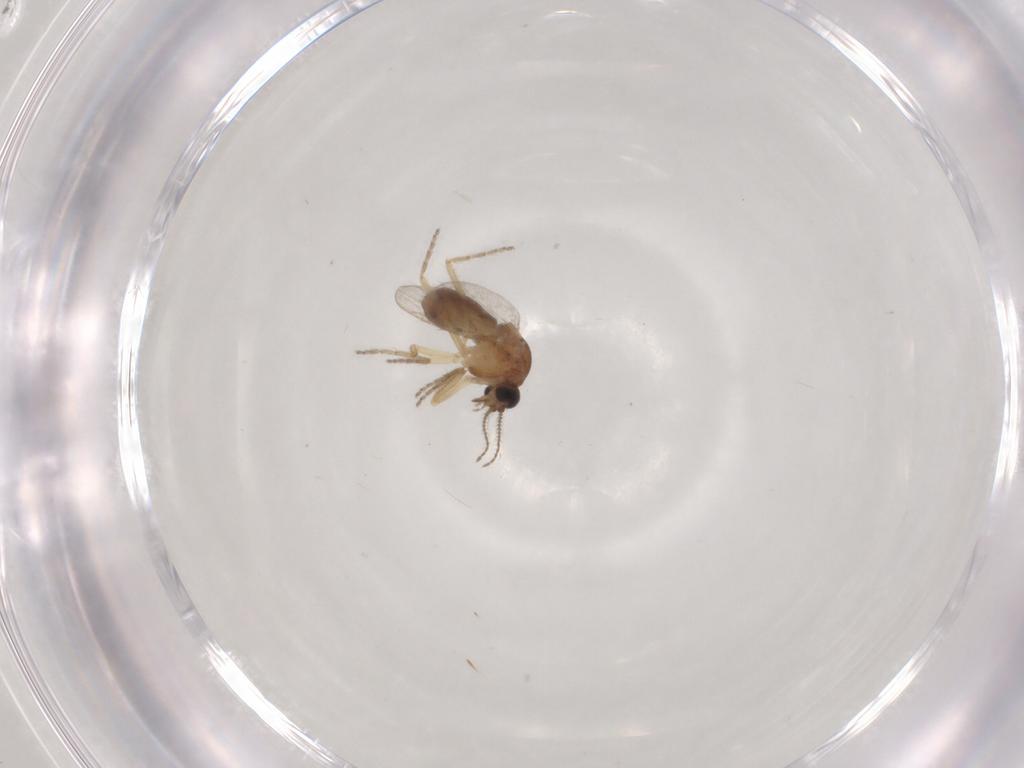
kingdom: Animalia
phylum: Arthropoda
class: Insecta
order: Diptera
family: Ceratopogonidae
